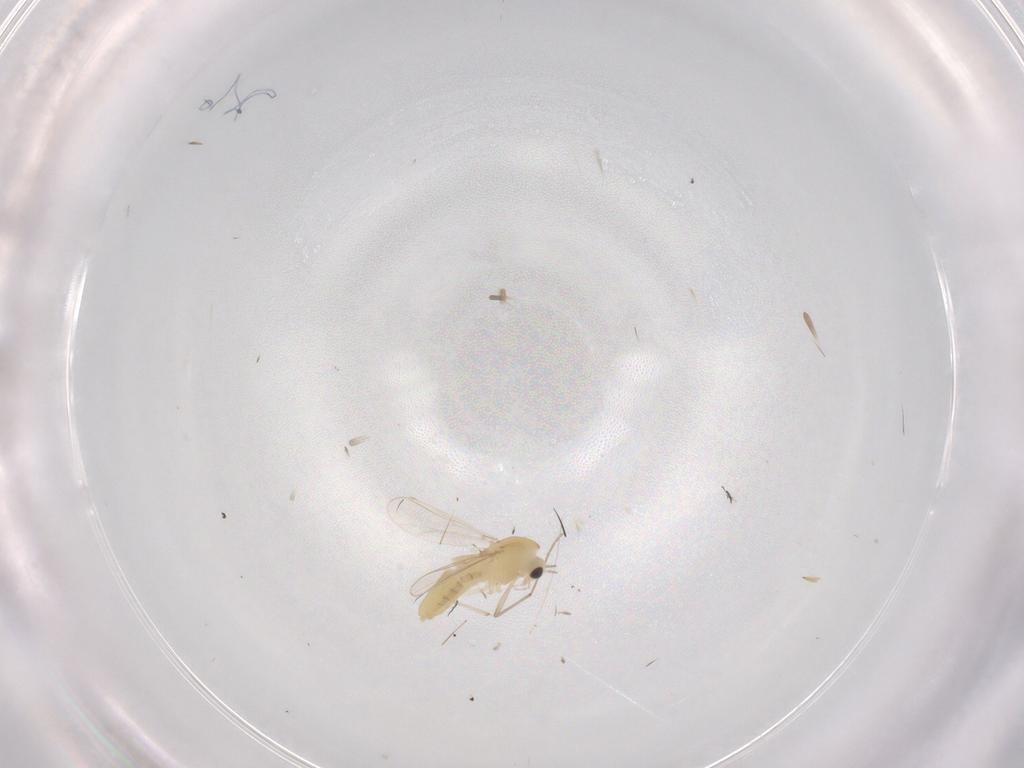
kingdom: Animalia
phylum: Arthropoda
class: Insecta
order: Diptera
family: Chironomidae
